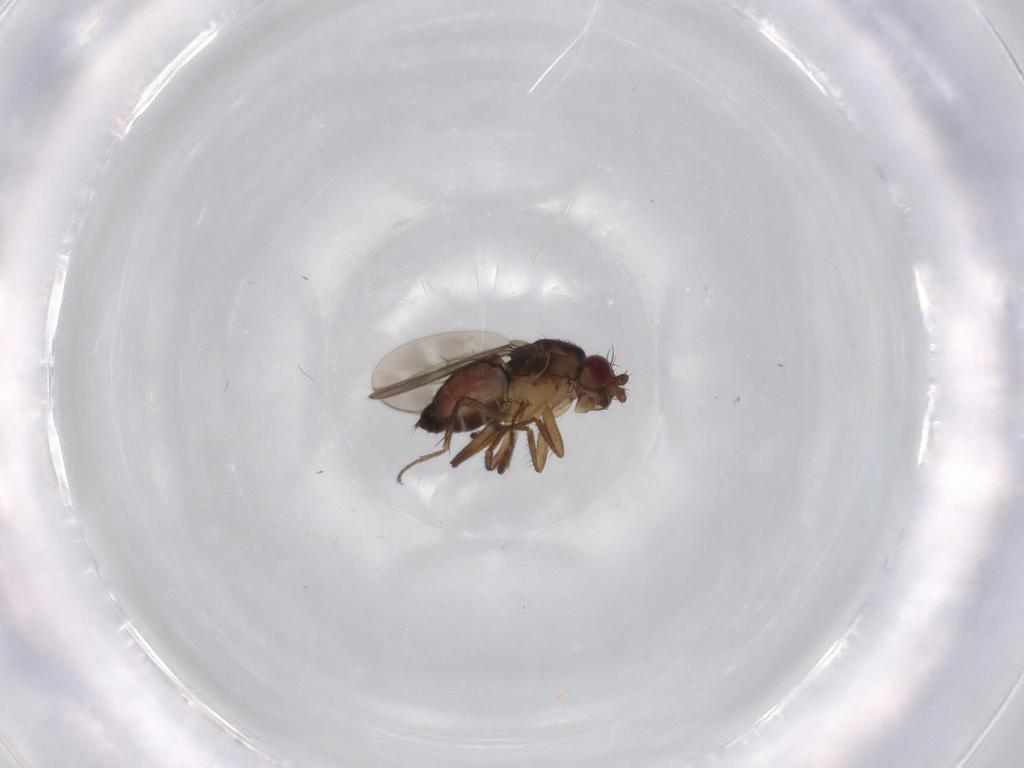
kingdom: Animalia
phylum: Arthropoda
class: Insecta
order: Diptera
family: Sphaeroceridae
